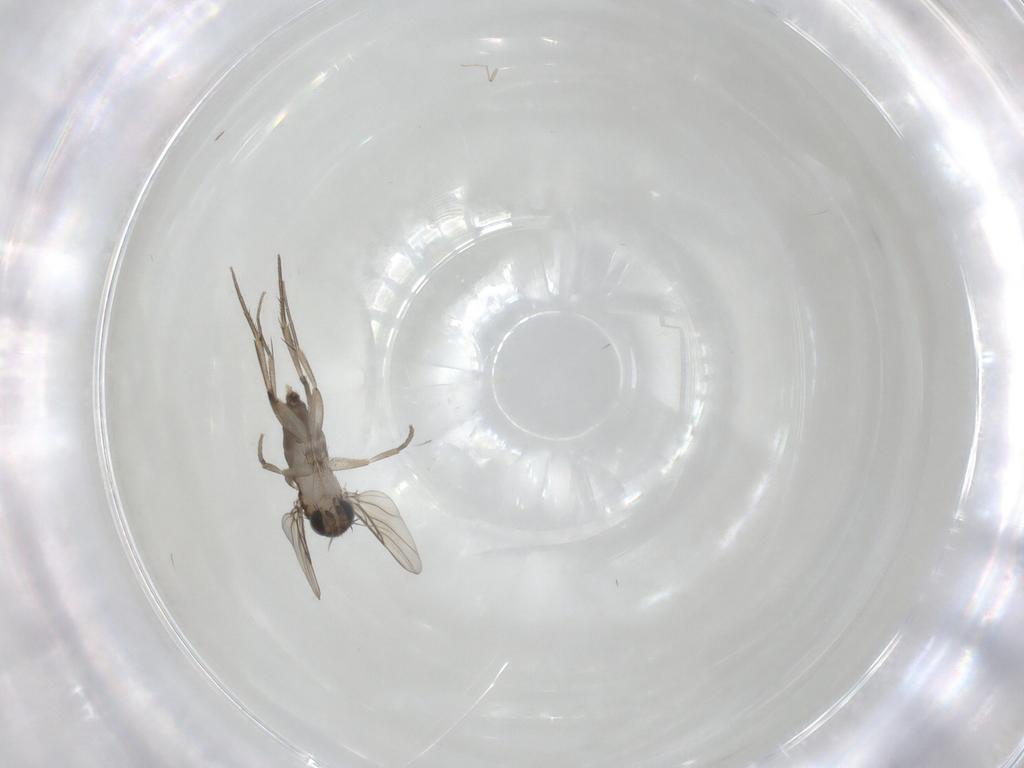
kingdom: Animalia
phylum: Arthropoda
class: Insecta
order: Diptera
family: Phoridae
